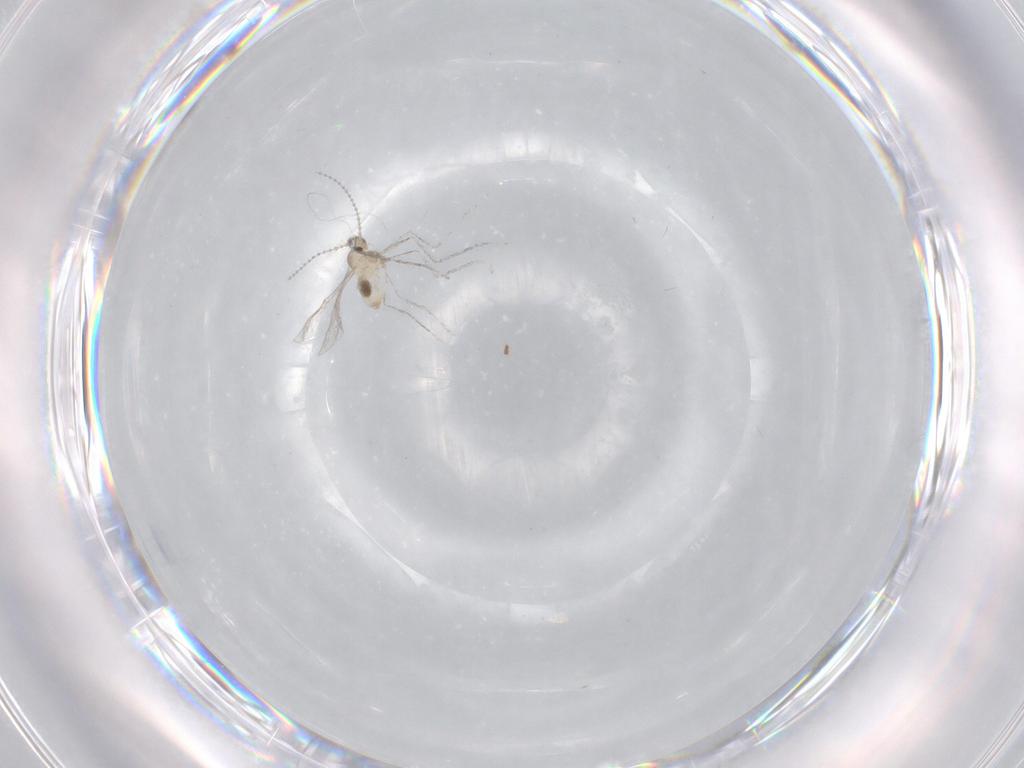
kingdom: Animalia
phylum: Arthropoda
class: Insecta
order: Diptera
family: Cecidomyiidae
